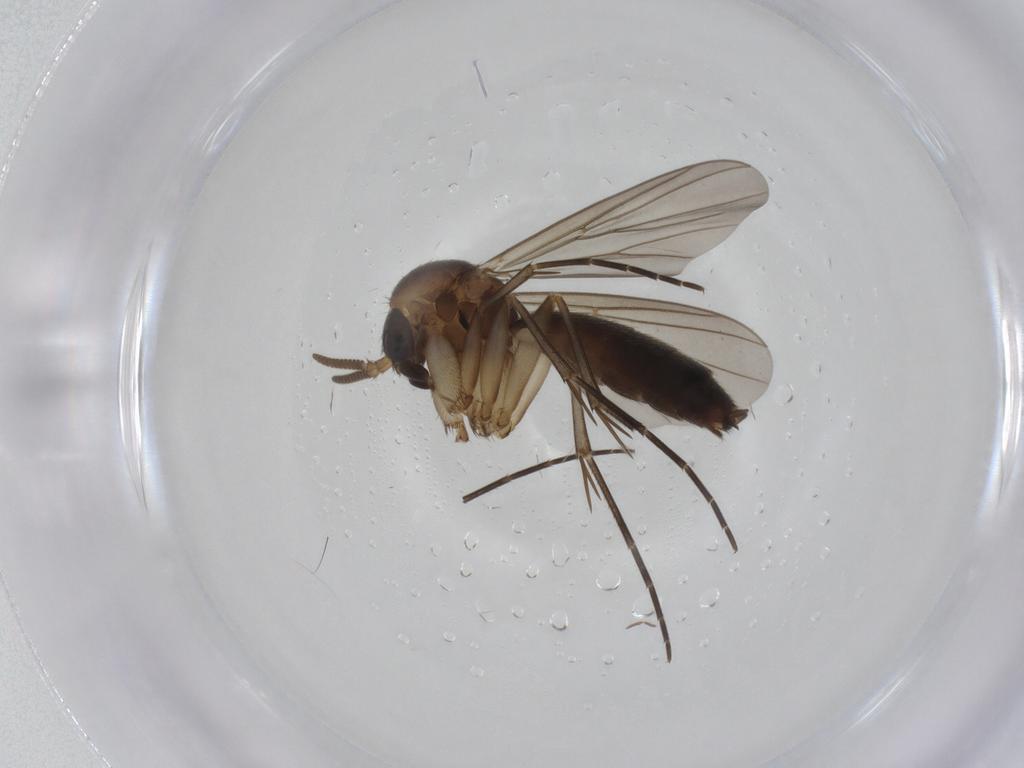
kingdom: Animalia
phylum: Arthropoda
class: Insecta
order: Diptera
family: Mycetophilidae
